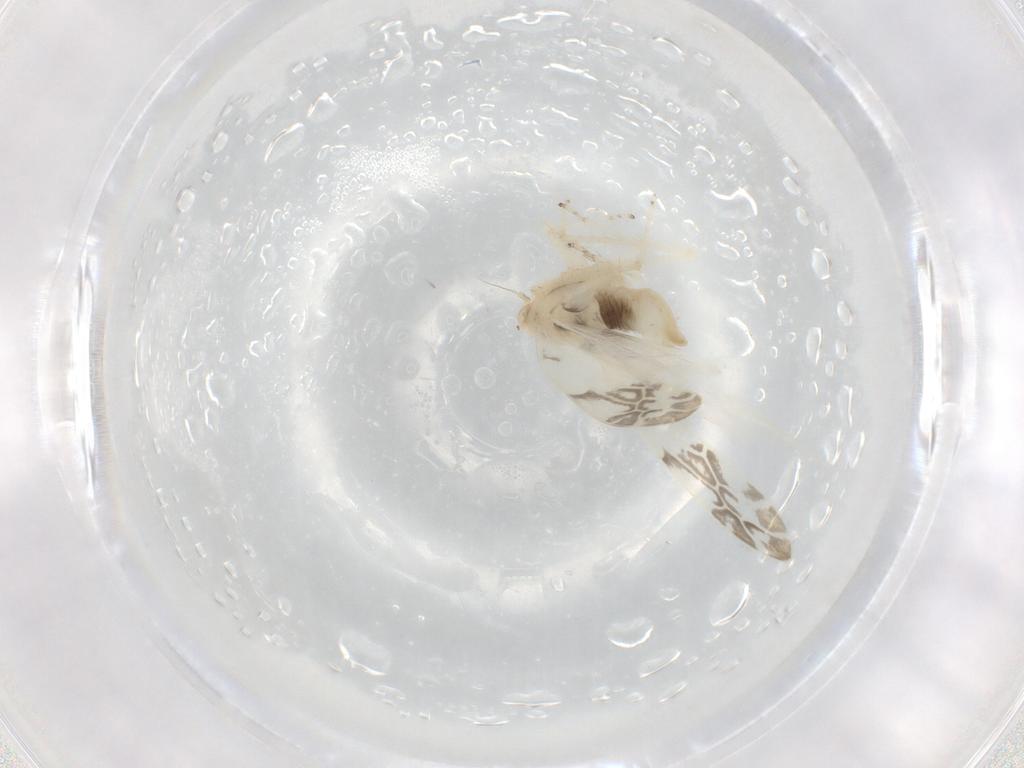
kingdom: Animalia
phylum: Arthropoda
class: Insecta
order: Hemiptera
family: Cicadellidae
